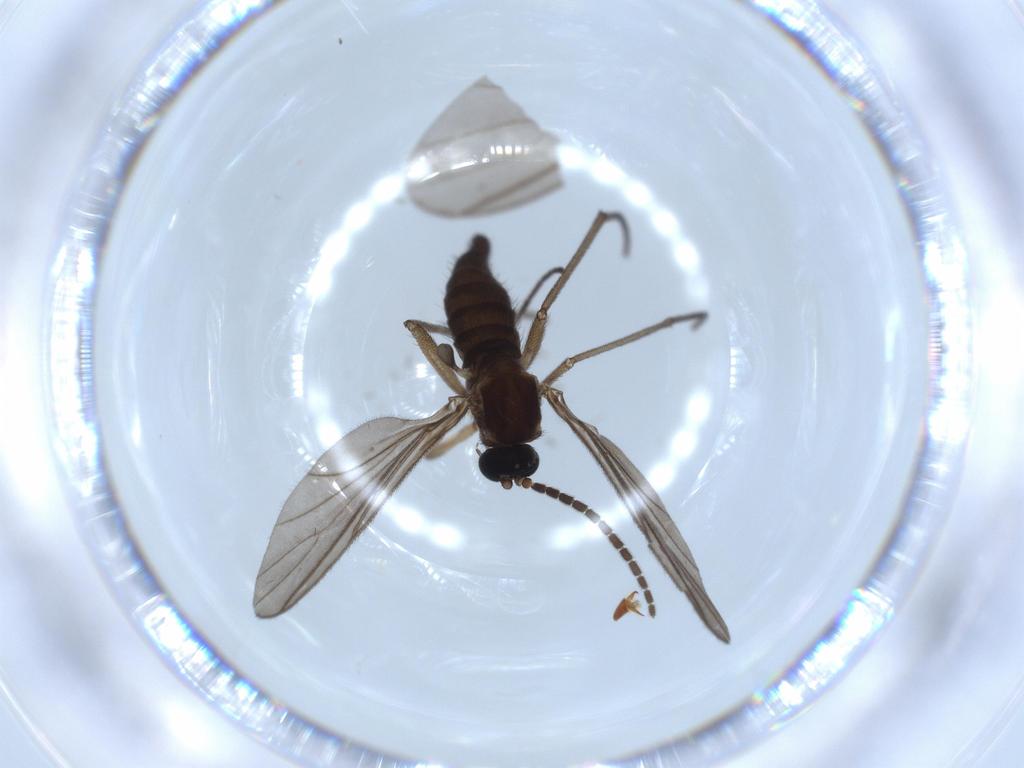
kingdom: Animalia
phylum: Arthropoda
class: Insecta
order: Diptera
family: Sciaridae
